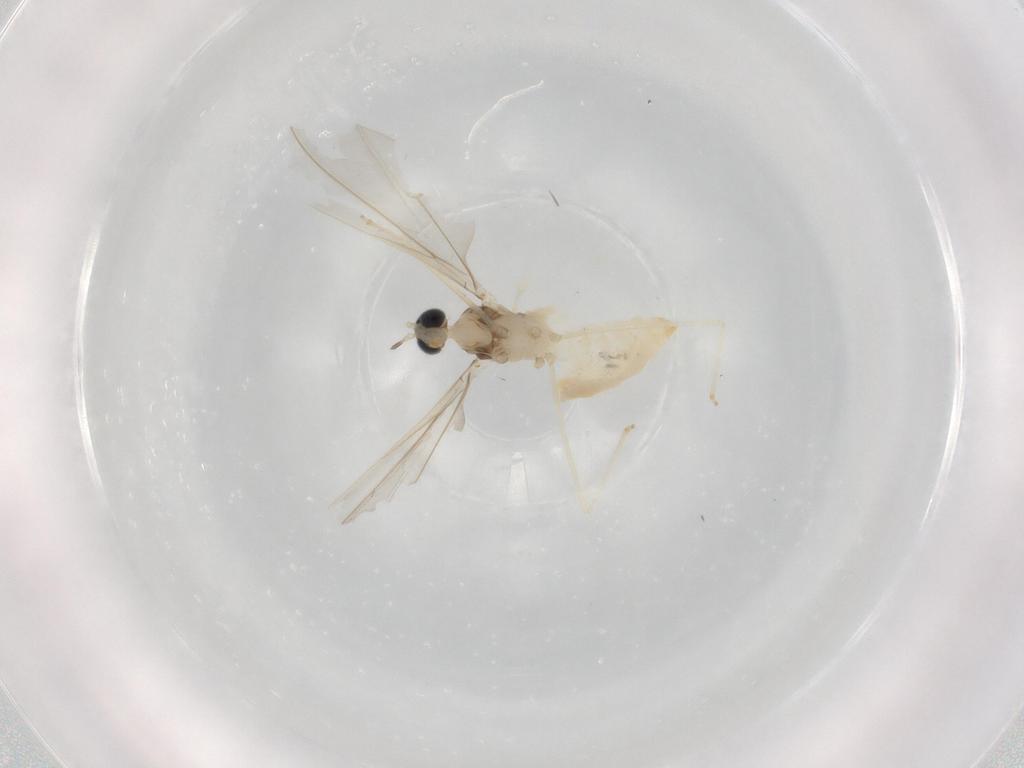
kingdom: Animalia
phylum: Arthropoda
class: Insecta
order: Diptera
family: Cecidomyiidae
